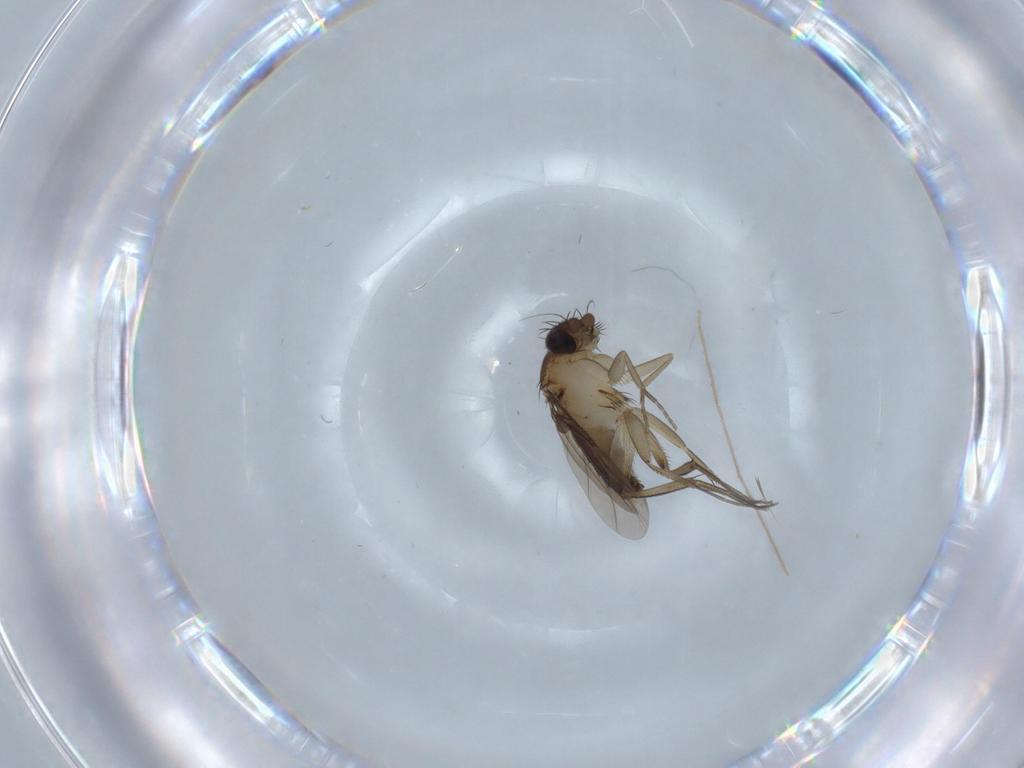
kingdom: Animalia
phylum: Arthropoda
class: Insecta
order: Diptera
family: Phoridae
